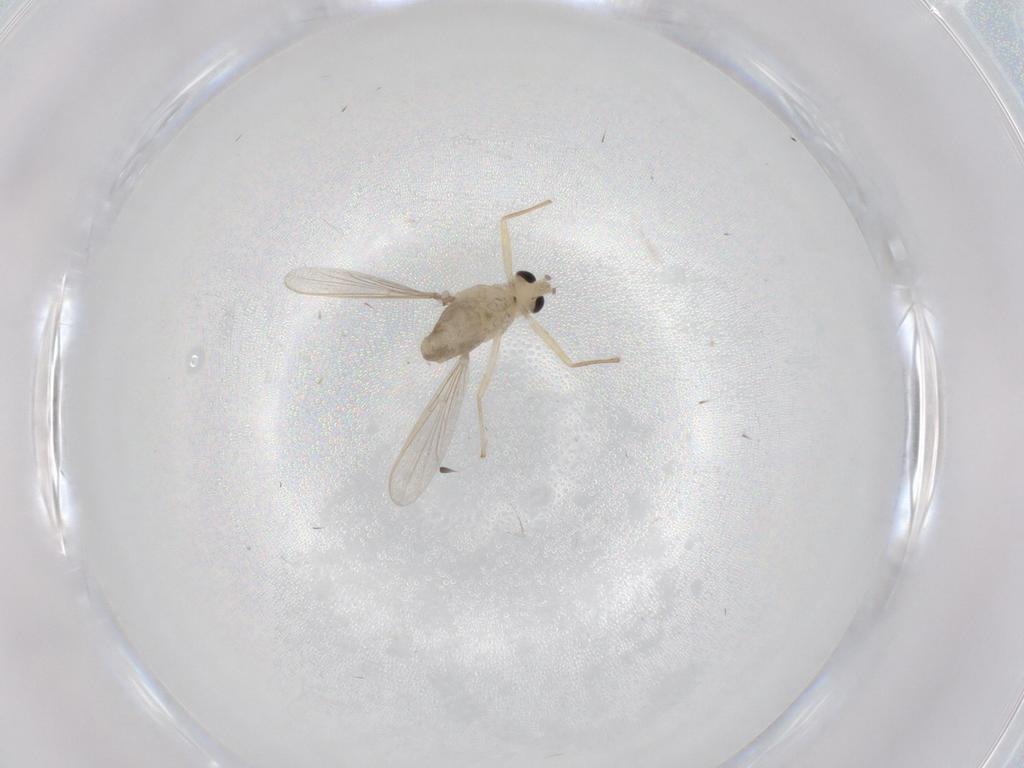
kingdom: Animalia
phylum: Arthropoda
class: Insecta
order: Diptera
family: Chironomidae
